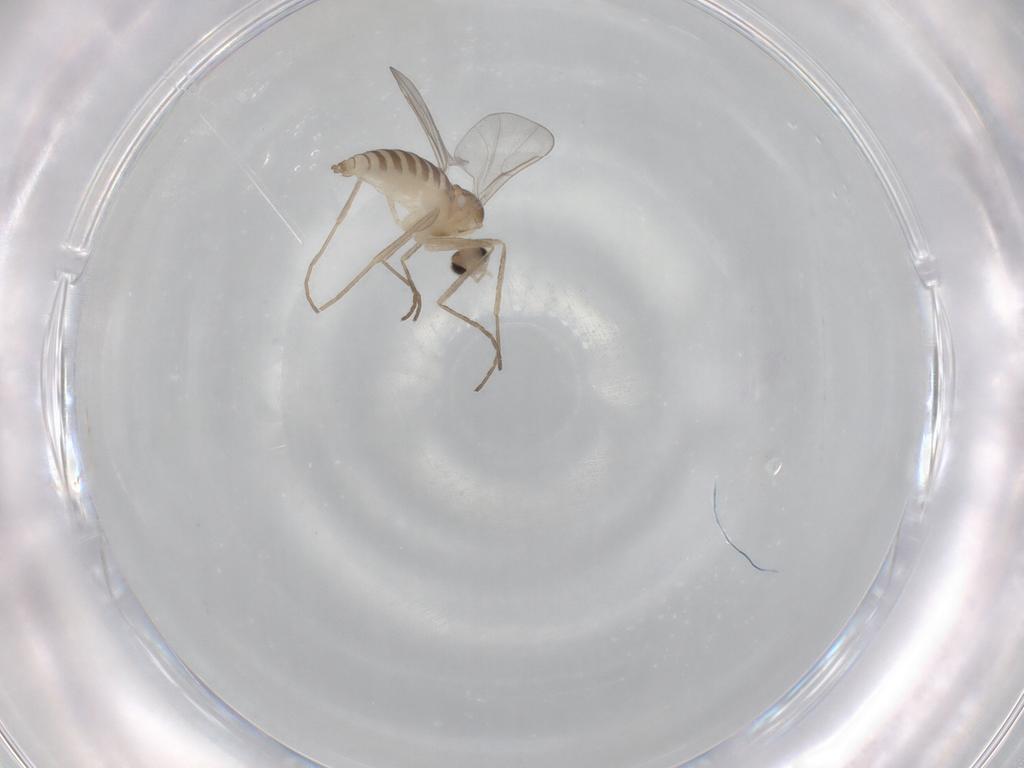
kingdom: Animalia
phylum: Arthropoda
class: Insecta
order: Diptera
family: Cecidomyiidae
